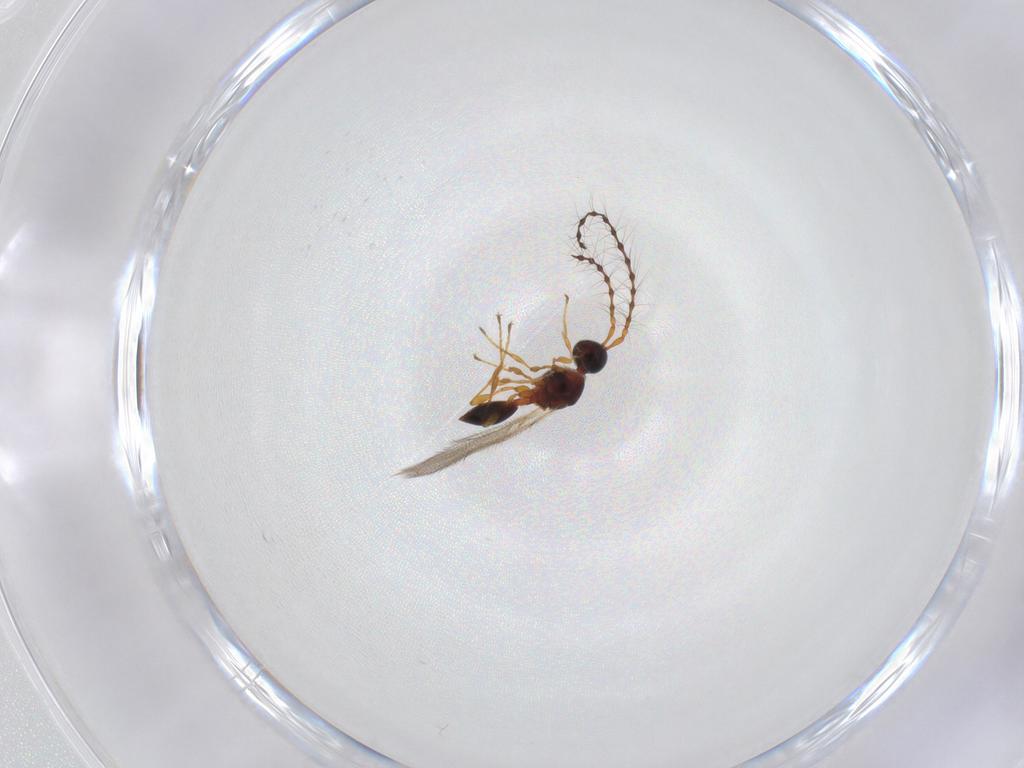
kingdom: Animalia
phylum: Arthropoda
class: Insecta
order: Hymenoptera
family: Diapriidae
